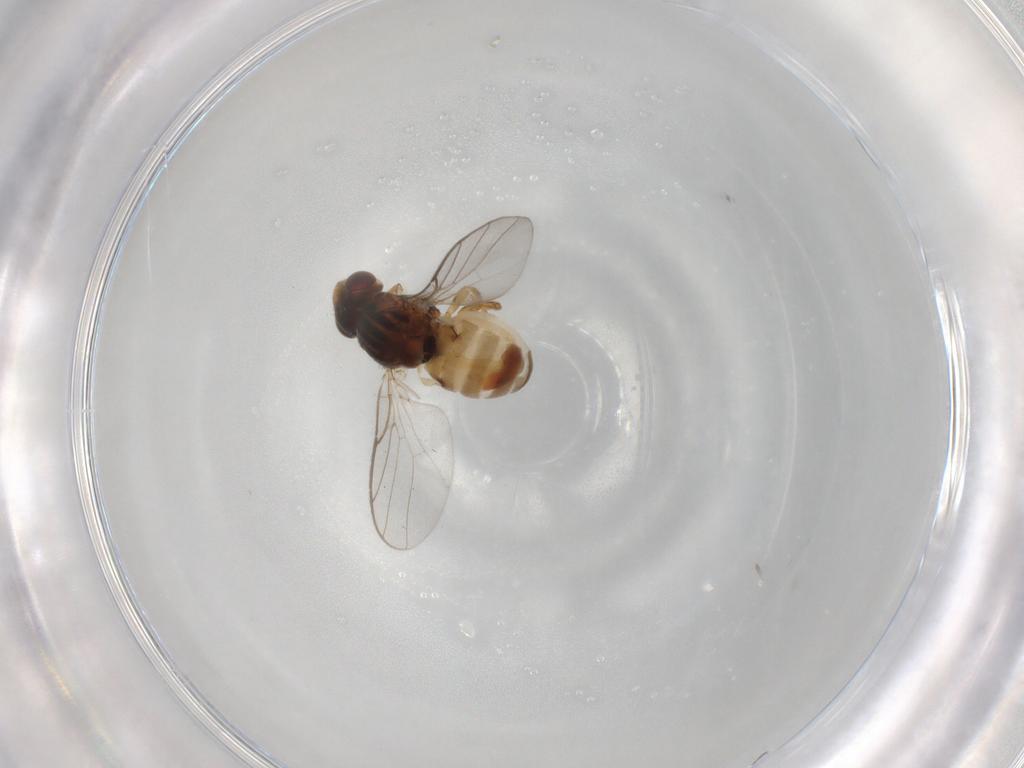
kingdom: Animalia
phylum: Arthropoda
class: Insecta
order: Diptera
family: Chloropidae
